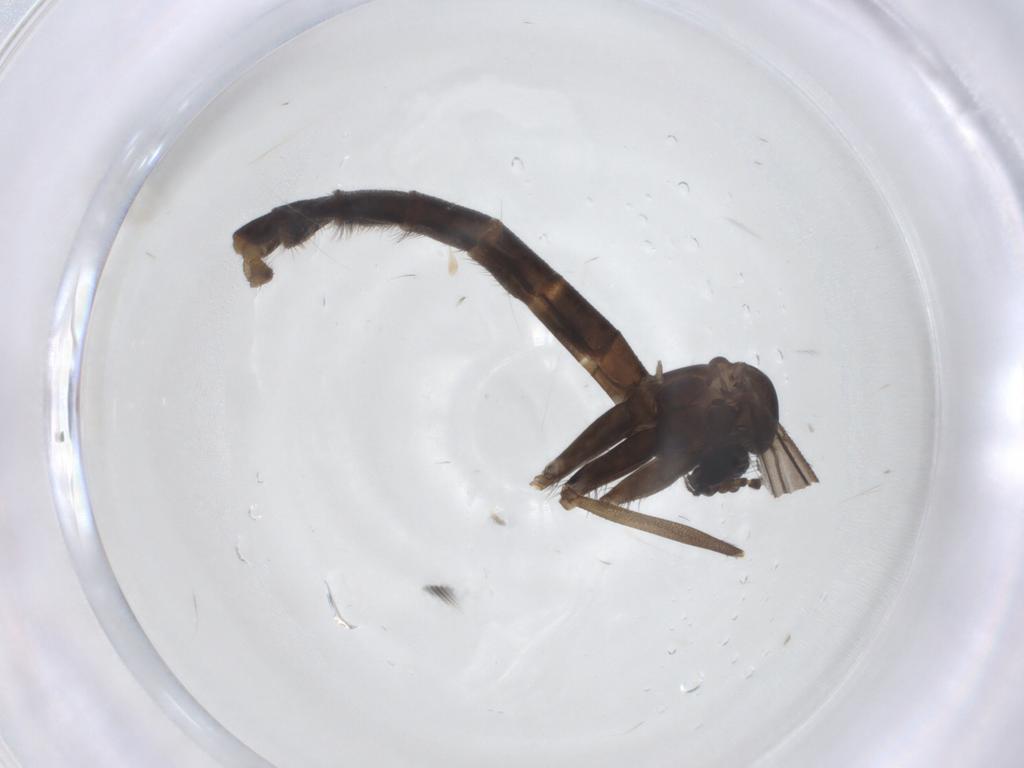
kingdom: Animalia
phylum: Arthropoda
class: Insecta
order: Diptera
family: Tachinidae
